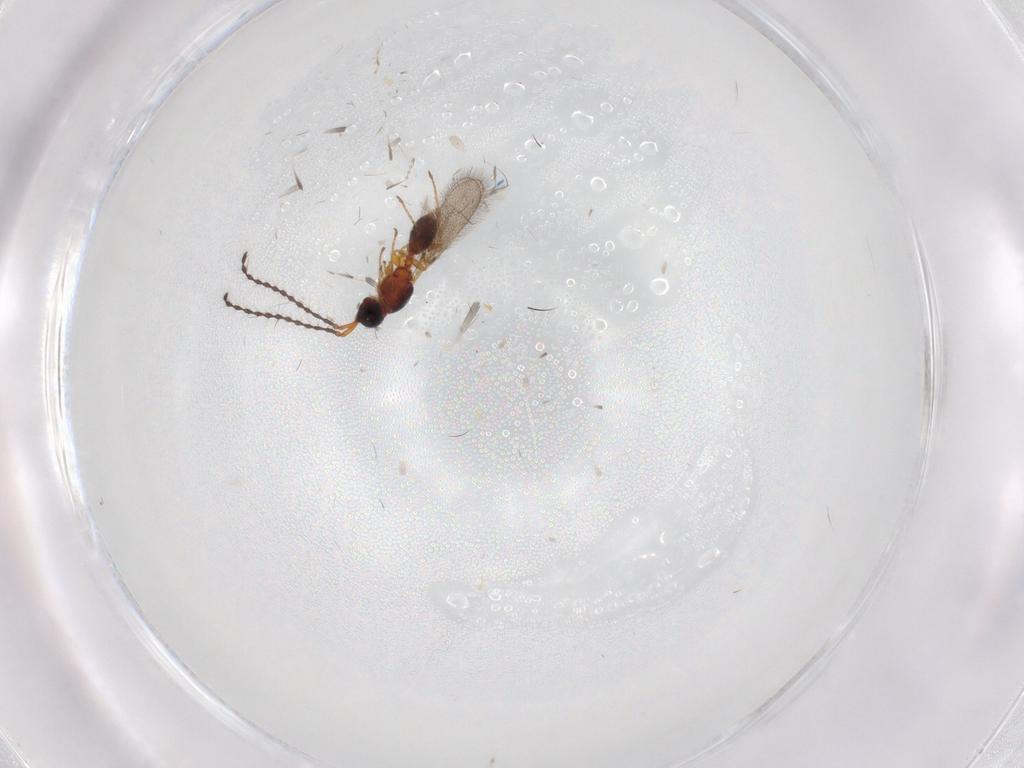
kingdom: Animalia
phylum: Arthropoda
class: Insecta
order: Hymenoptera
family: Diapriidae
